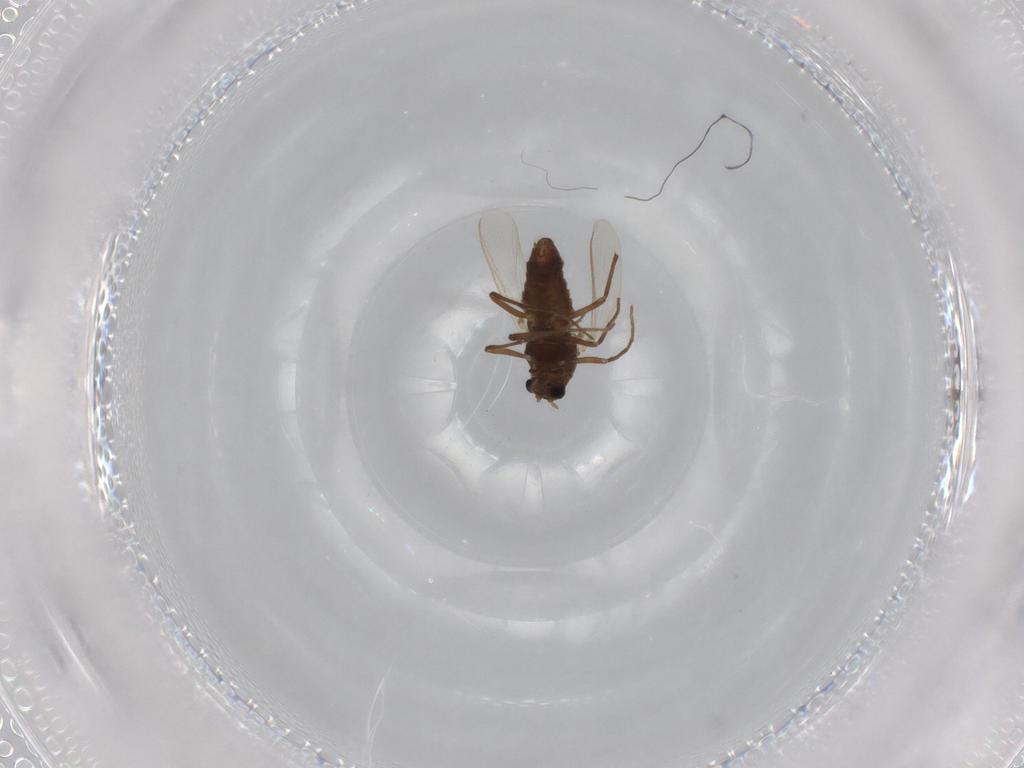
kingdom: Animalia
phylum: Arthropoda
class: Insecta
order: Diptera
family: Chironomidae
